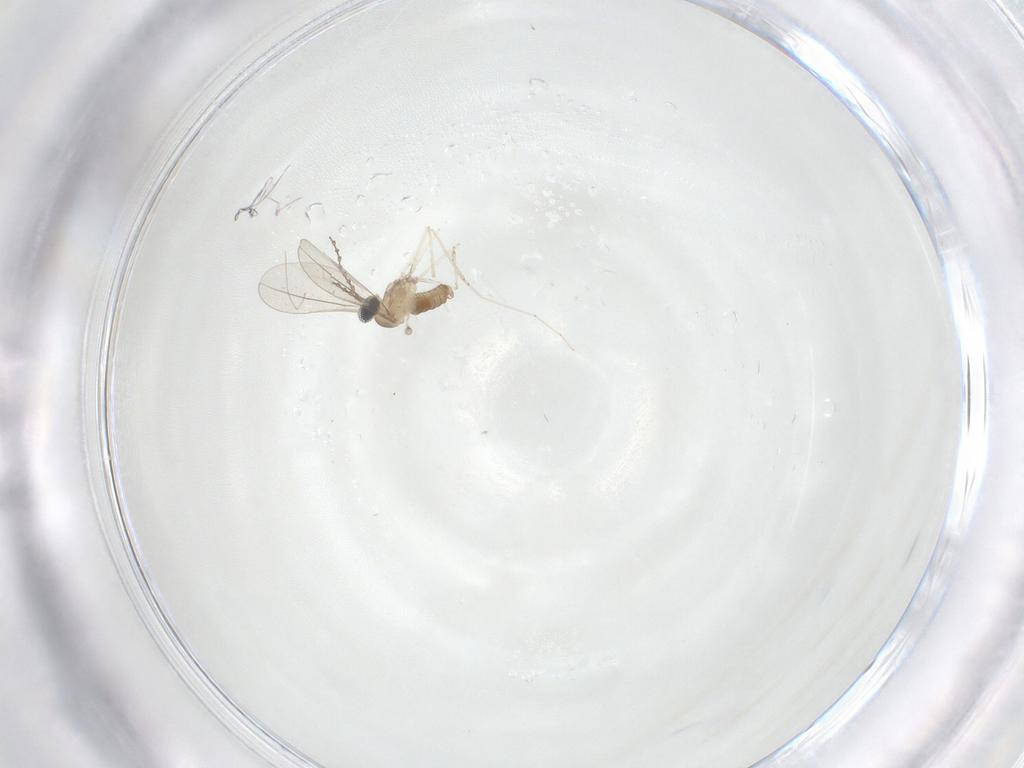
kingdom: Animalia
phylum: Arthropoda
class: Insecta
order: Diptera
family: Cecidomyiidae
